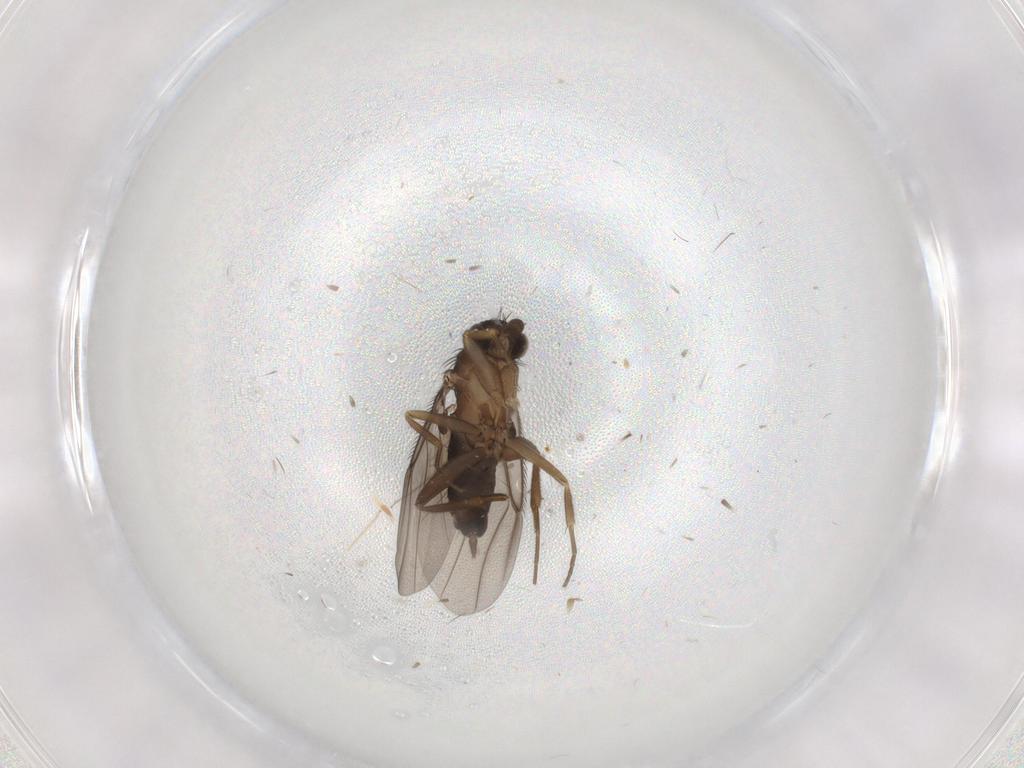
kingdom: Animalia
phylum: Arthropoda
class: Insecta
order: Diptera
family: Phoridae
